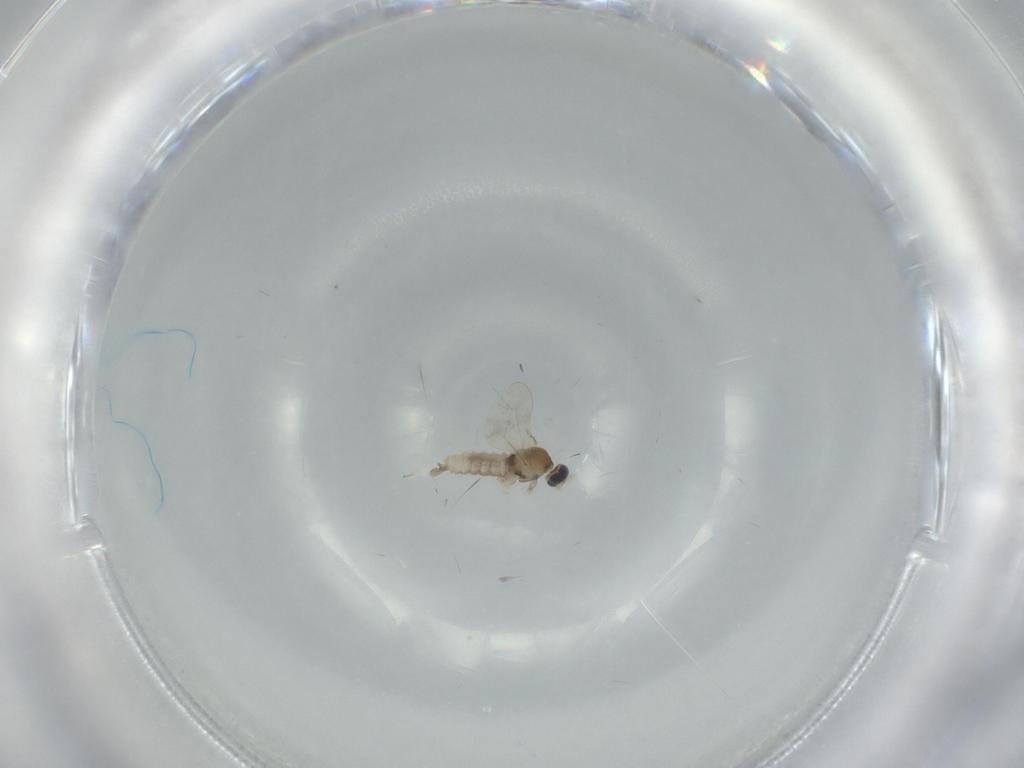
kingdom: Animalia
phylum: Arthropoda
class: Insecta
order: Diptera
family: Cecidomyiidae
